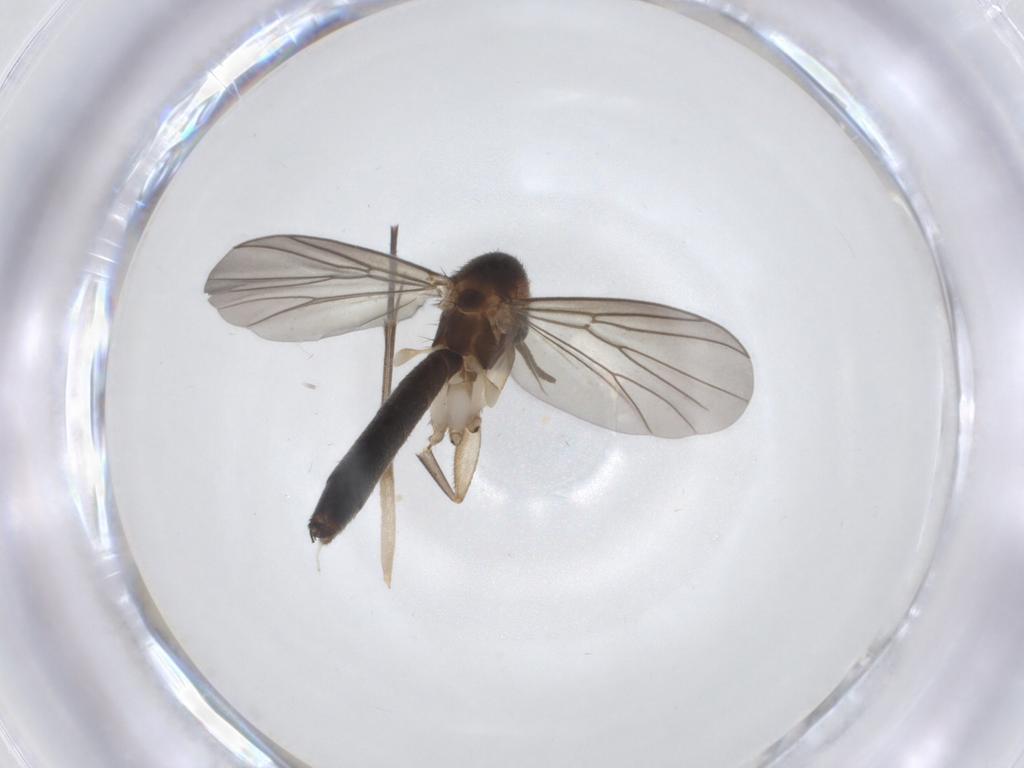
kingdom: Animalia
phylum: Arthropoda
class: Insecta
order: Diptera
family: Mycetophilidae
